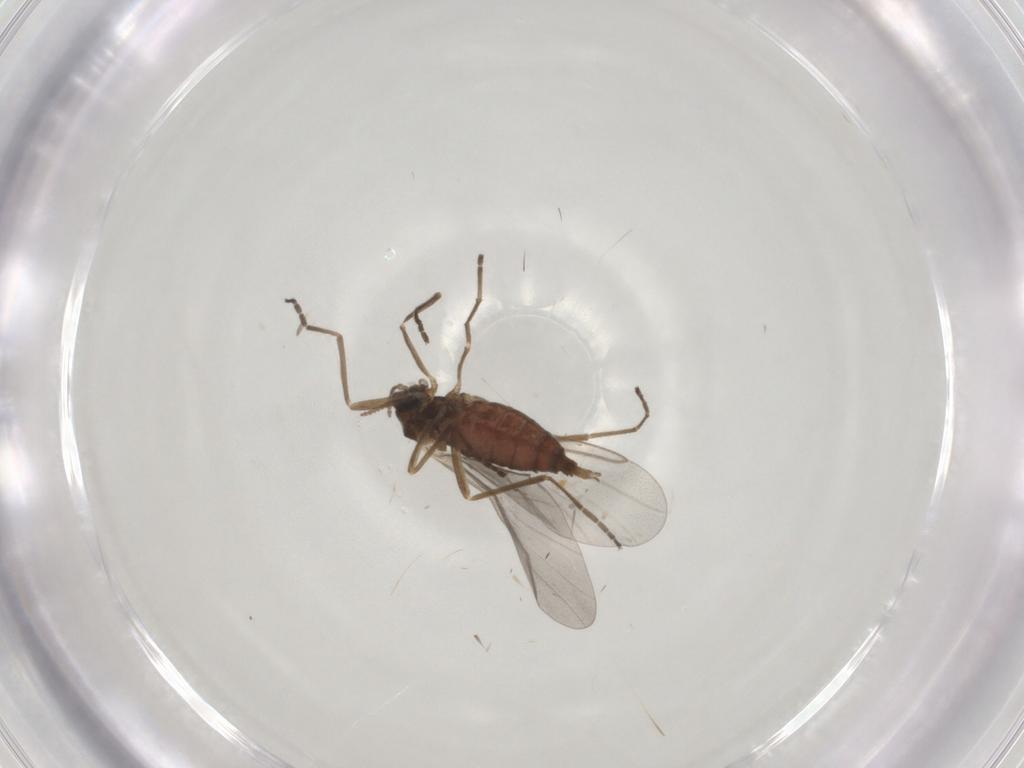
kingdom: Animalia
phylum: Arthropoda
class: Insecta
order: Diptera
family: Cecidomyiidae
